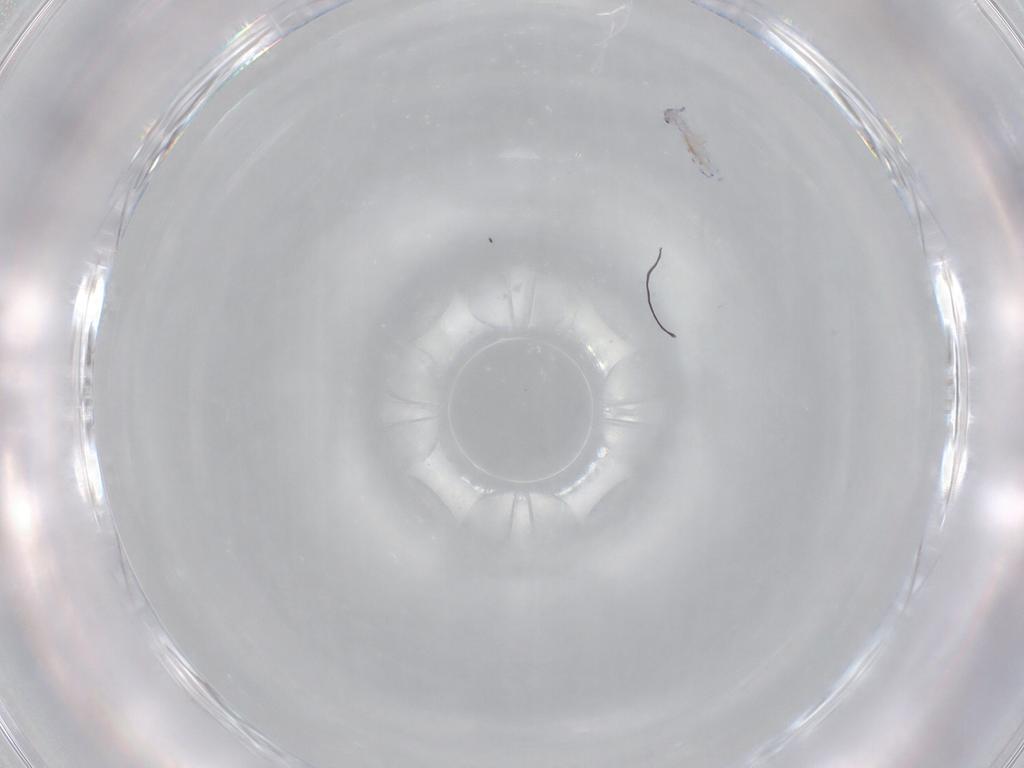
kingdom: Animalia
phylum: Arthropoda
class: Collembola
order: Entomobryomorpha
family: Entomobryidae
